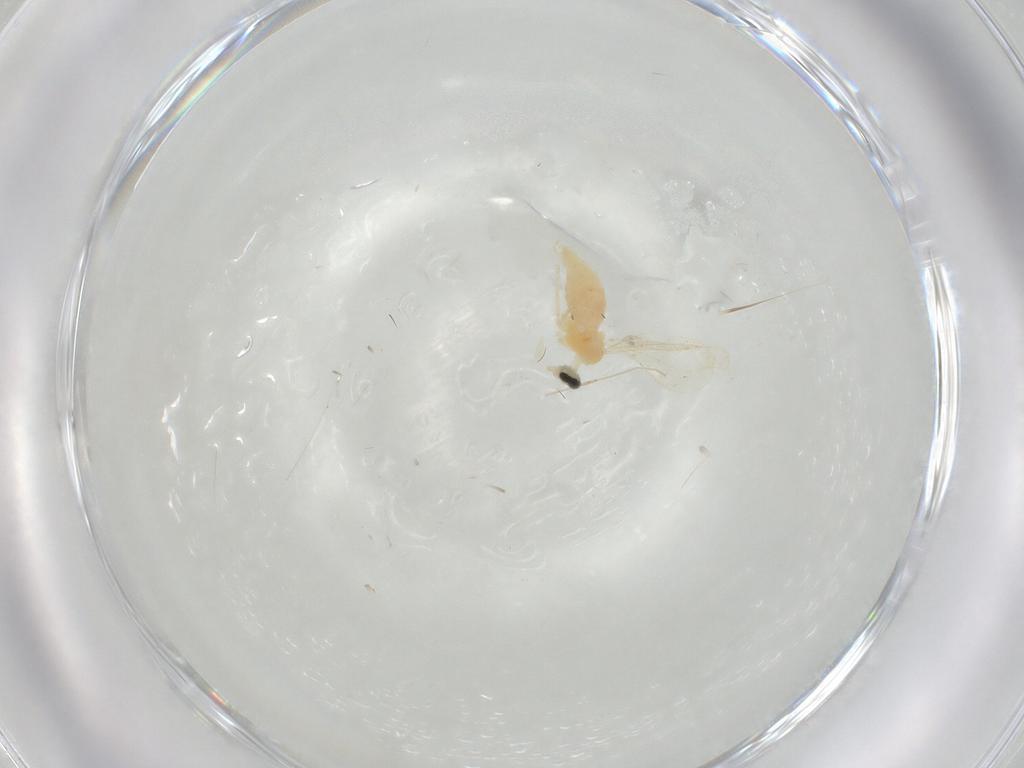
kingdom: Animalia
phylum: Arthropoda
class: Insecta
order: Diptera
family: Cecidomyiidae
